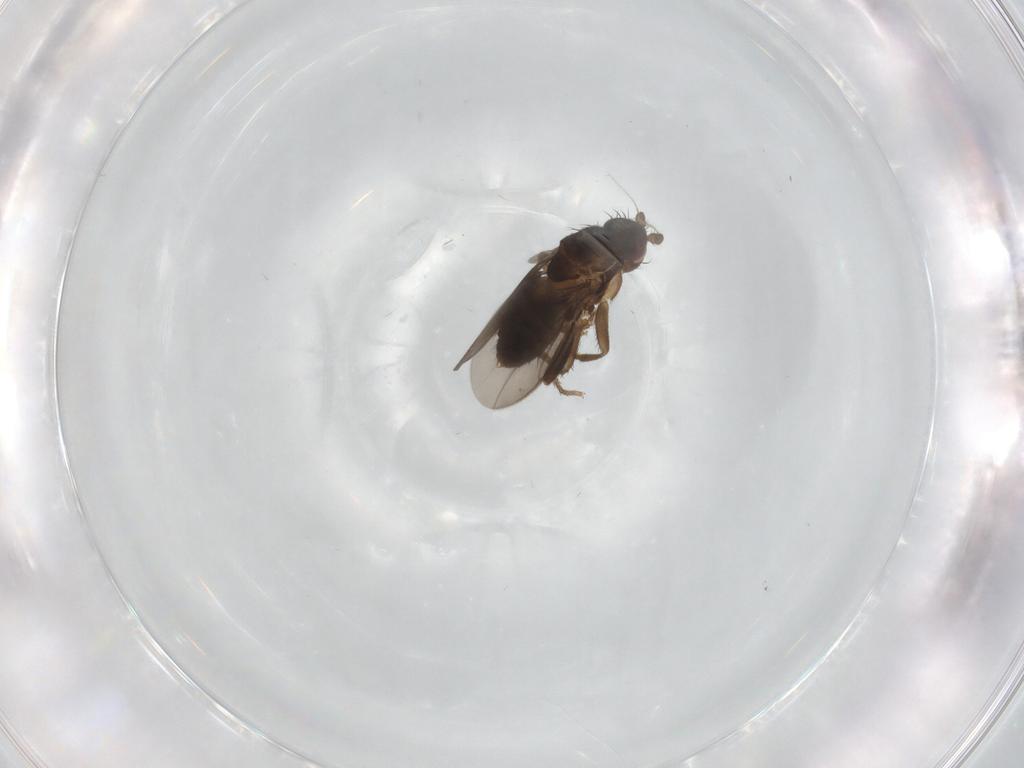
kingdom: Animalia
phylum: Arthropoda
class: Insecta
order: Diptera
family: Sphaeroceridae
